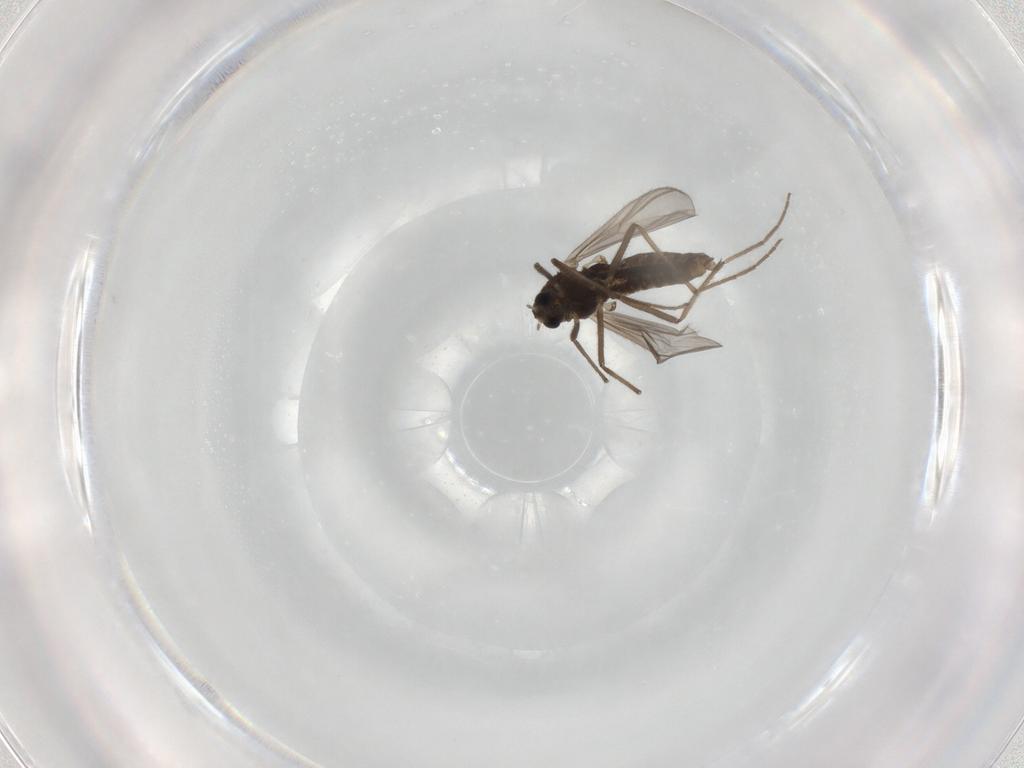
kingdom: Animalia
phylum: Arthropoda
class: Insecta
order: Diptera
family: Chironomidae
